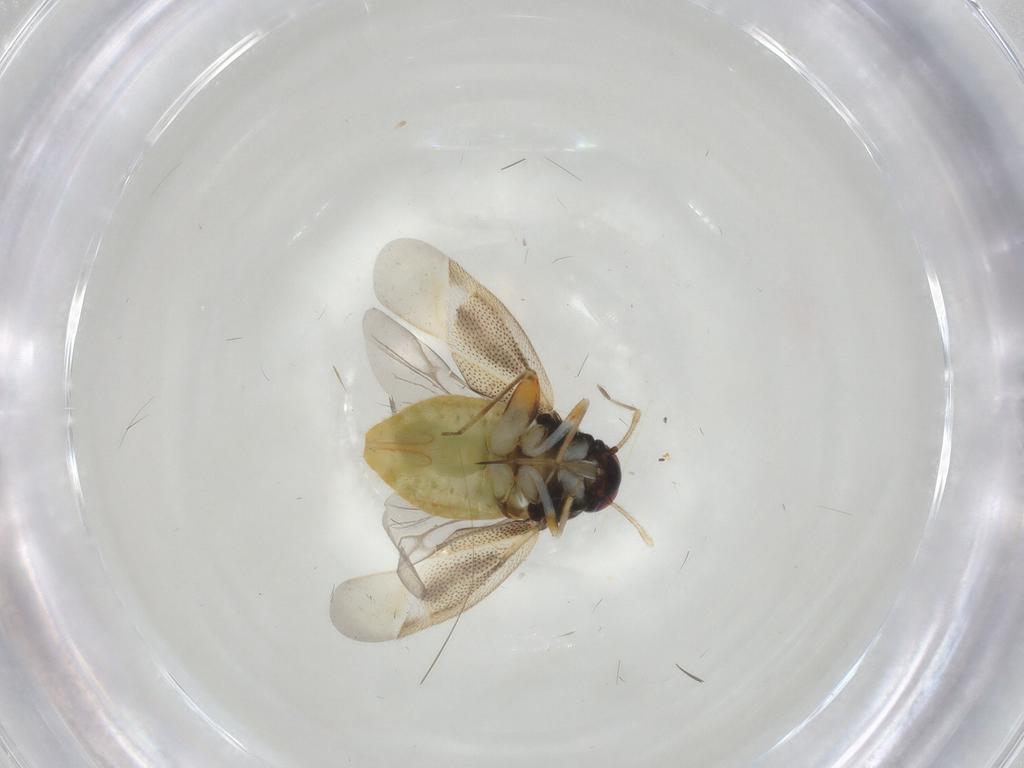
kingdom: Animalia
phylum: Arthropoda
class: Insecta
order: Hemiptera
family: Miridae
